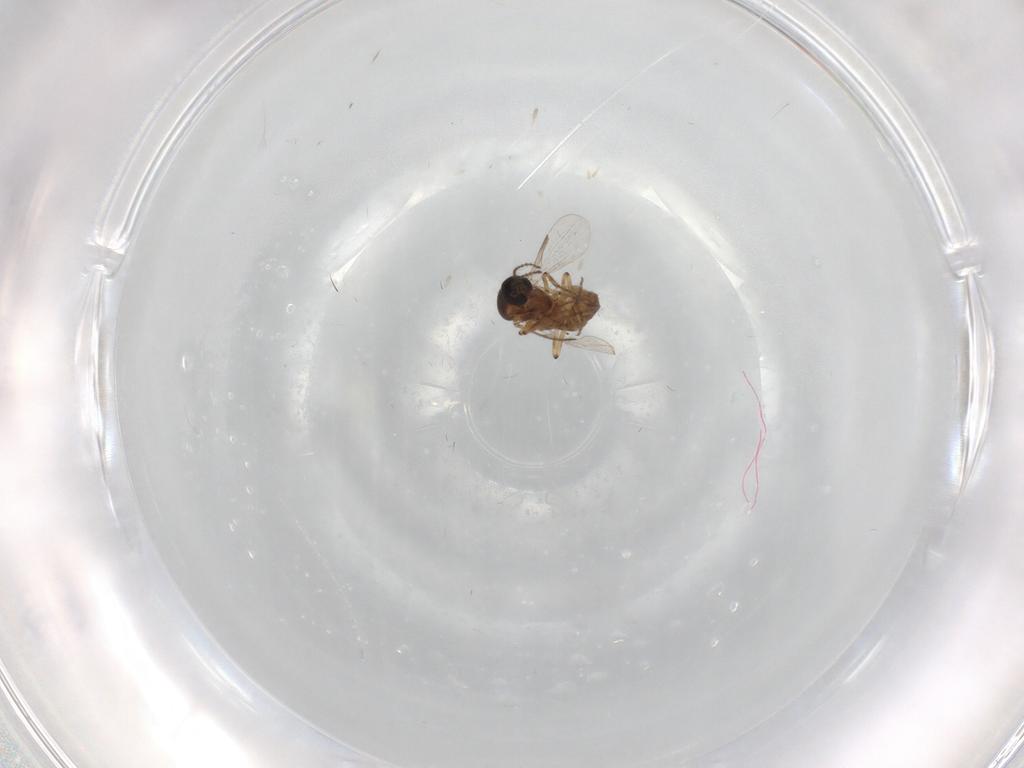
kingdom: Animalia
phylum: Arthropoda
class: Insecta
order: Diptera
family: Ceratopogonidae
